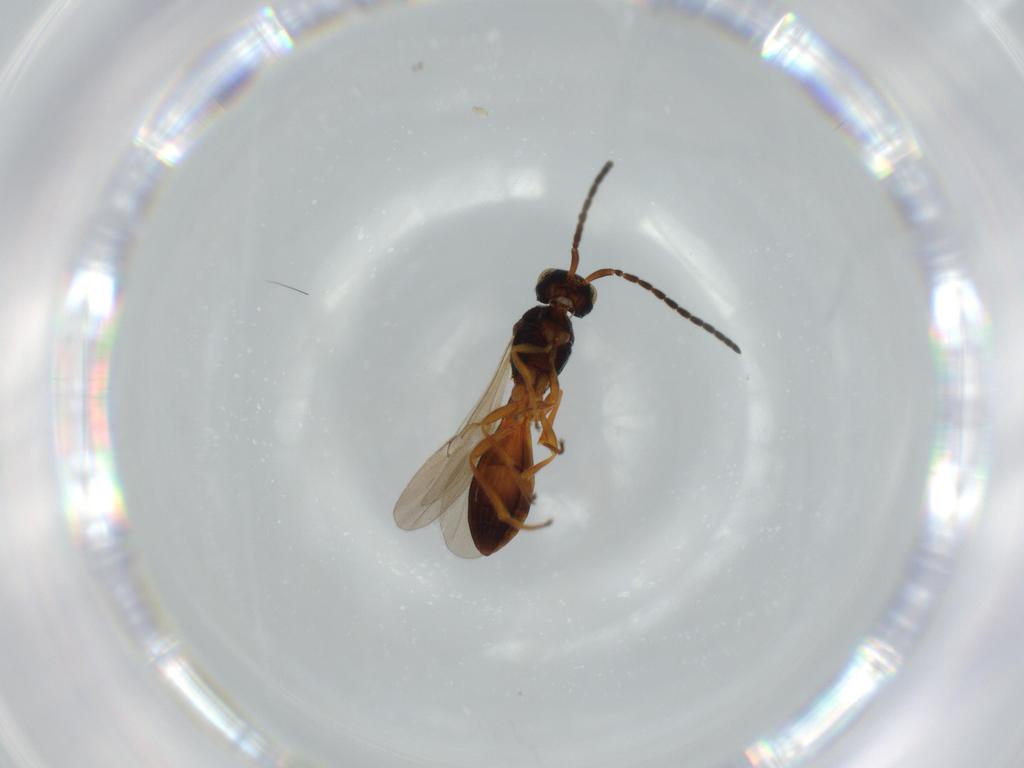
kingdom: Animalia
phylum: Arthropoda
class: Insecta
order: Hymenoptera
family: Scelionidae
